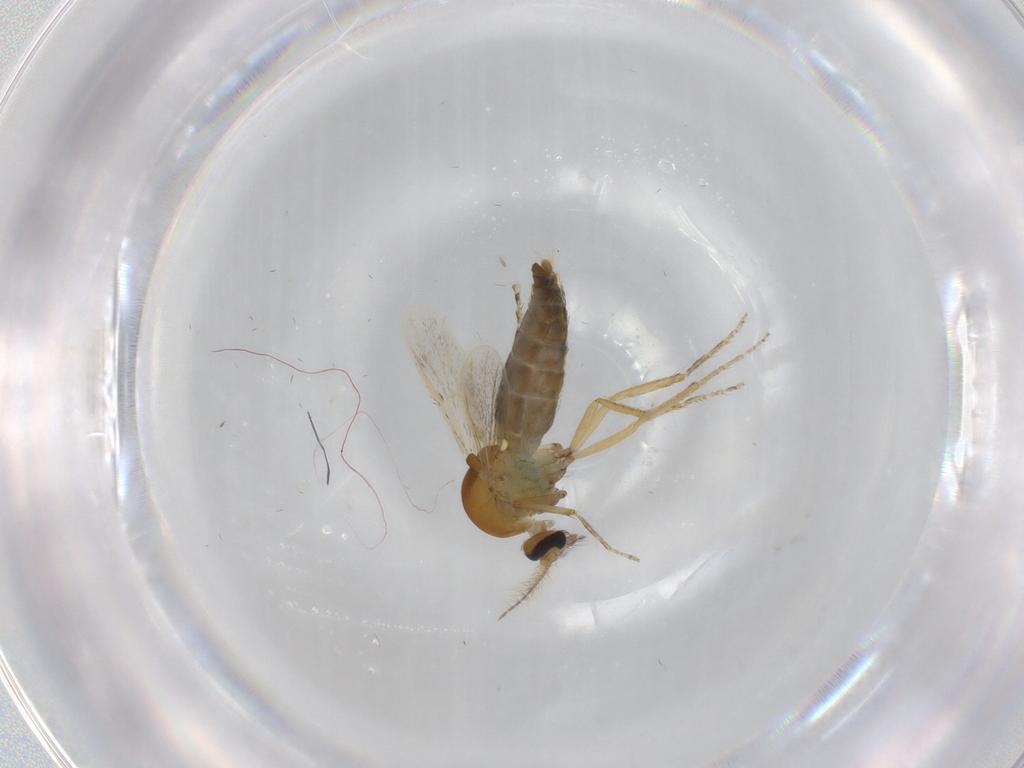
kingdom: Animalia
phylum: Arthropoda
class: Insecta
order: Diptera
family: Ceratopogonidae
